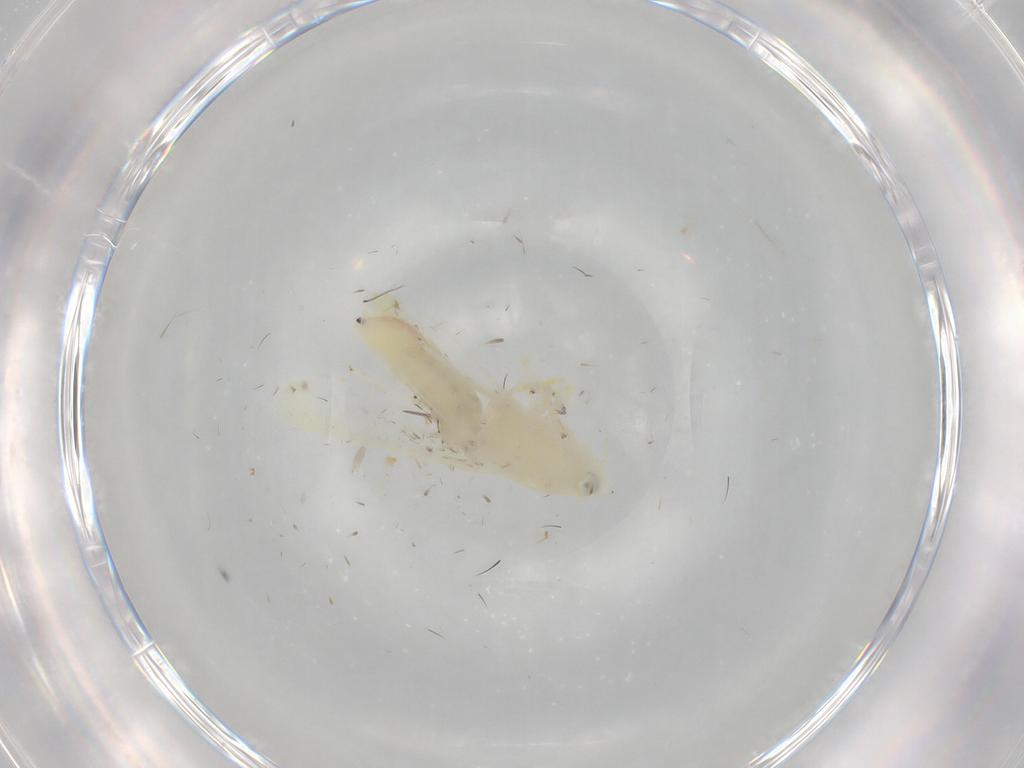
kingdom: Animalia
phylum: Arthropoda
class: Insecta
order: Hemiptera
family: Cicadellidae
